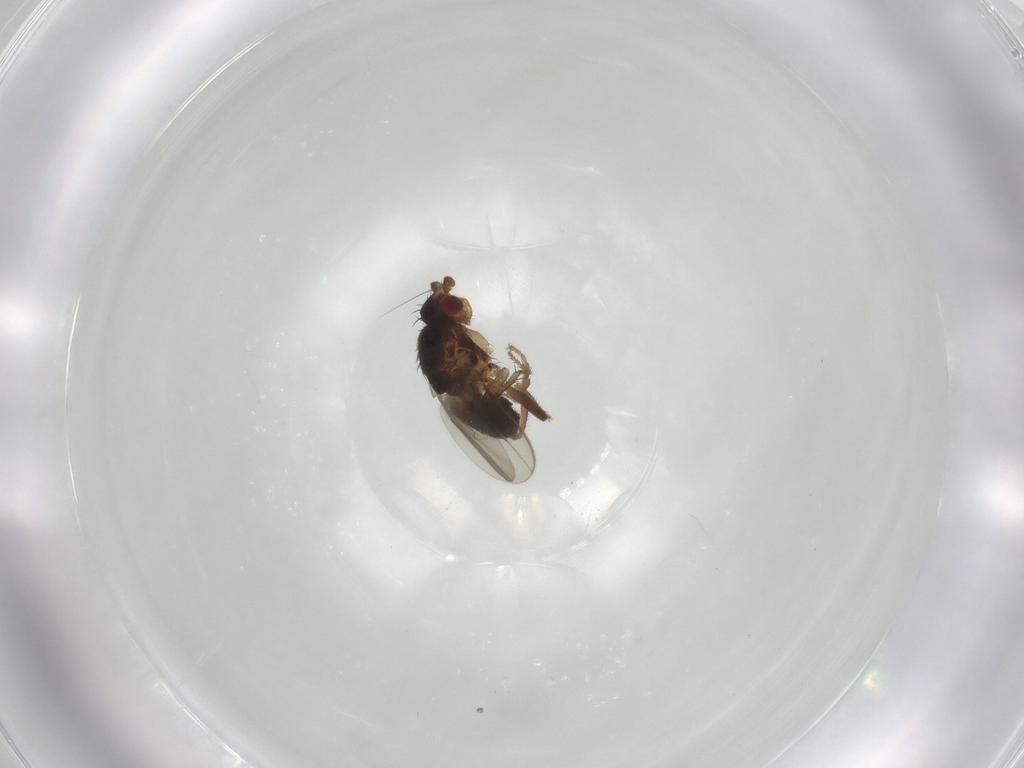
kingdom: Animalia
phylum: Arthropoda
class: Insecta
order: Diptera
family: Sphaeroceridae
